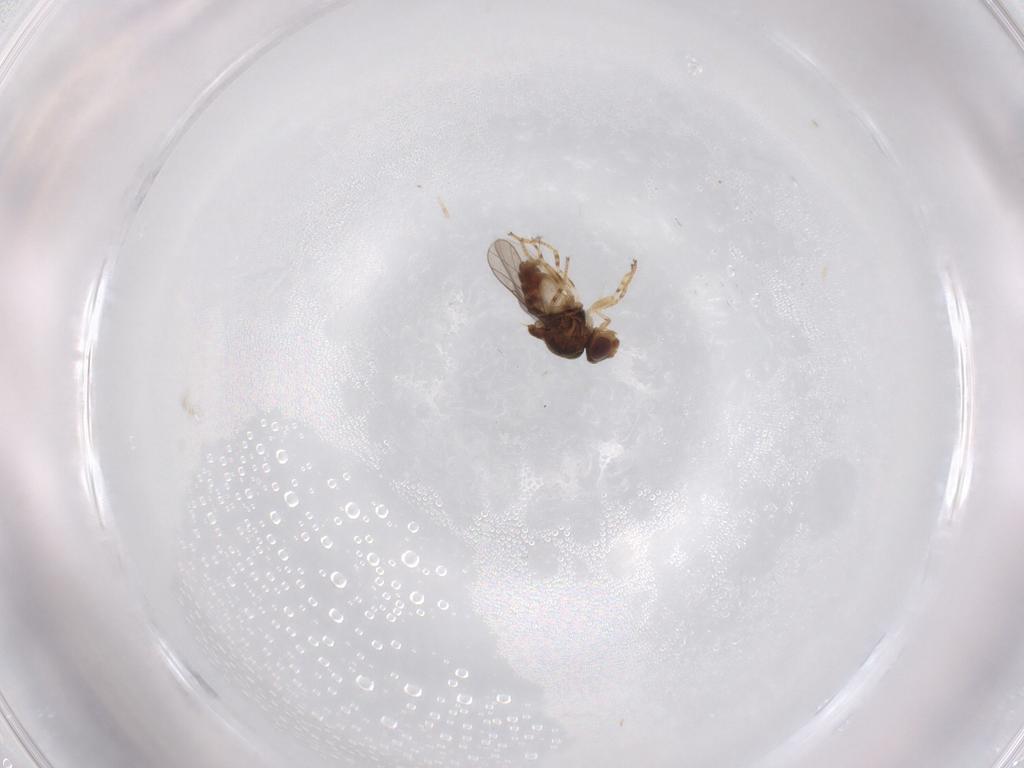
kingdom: Animalia
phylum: Arthropoda
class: Insecta
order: Diptera
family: Chloropidae
